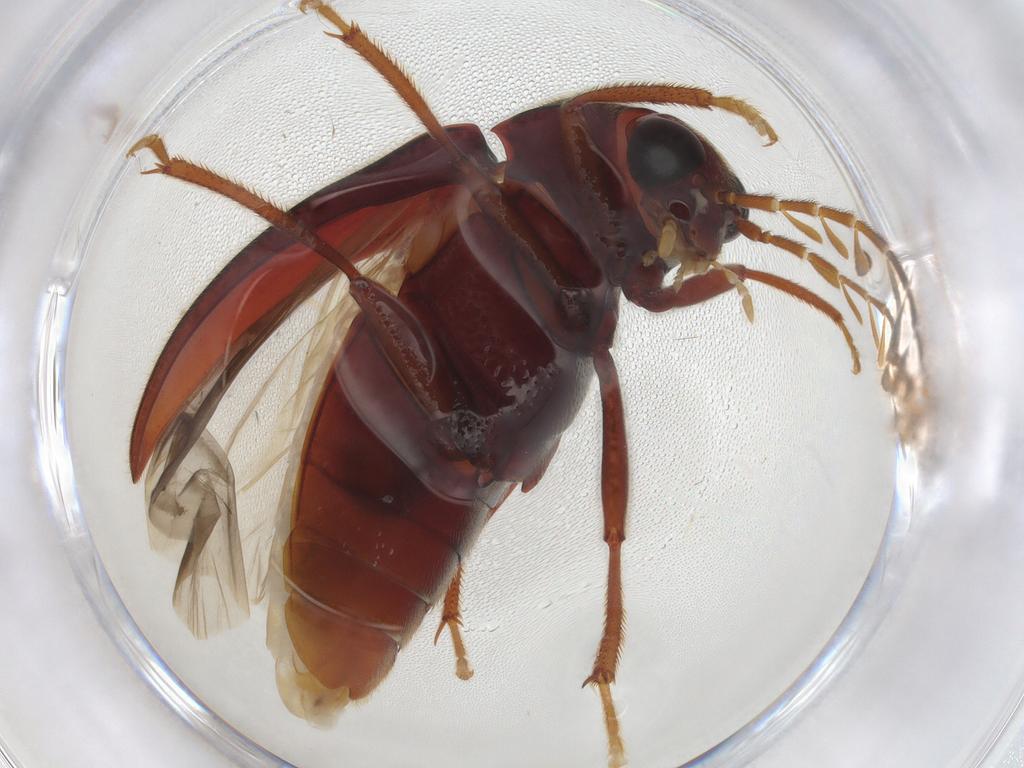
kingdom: Animalia
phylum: Arthropoda
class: Insecta
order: Coleoptera
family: Ptilodactylidae
